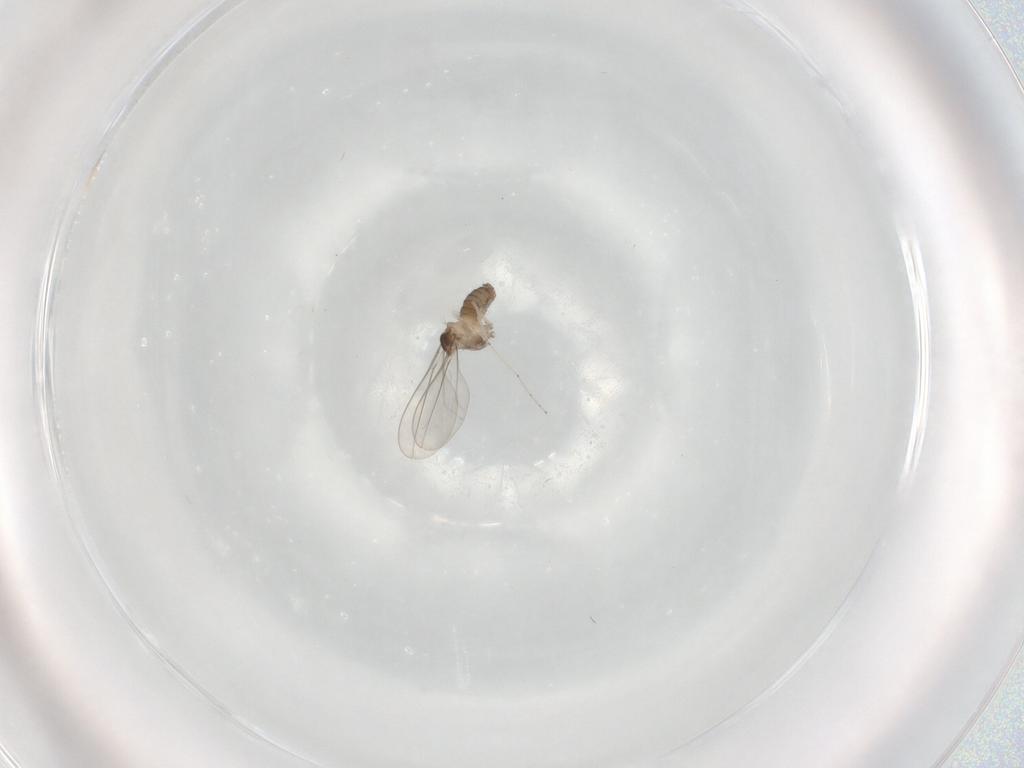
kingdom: Animalia
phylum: Arthropoda
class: Insecta
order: Diptera
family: Phoridae
